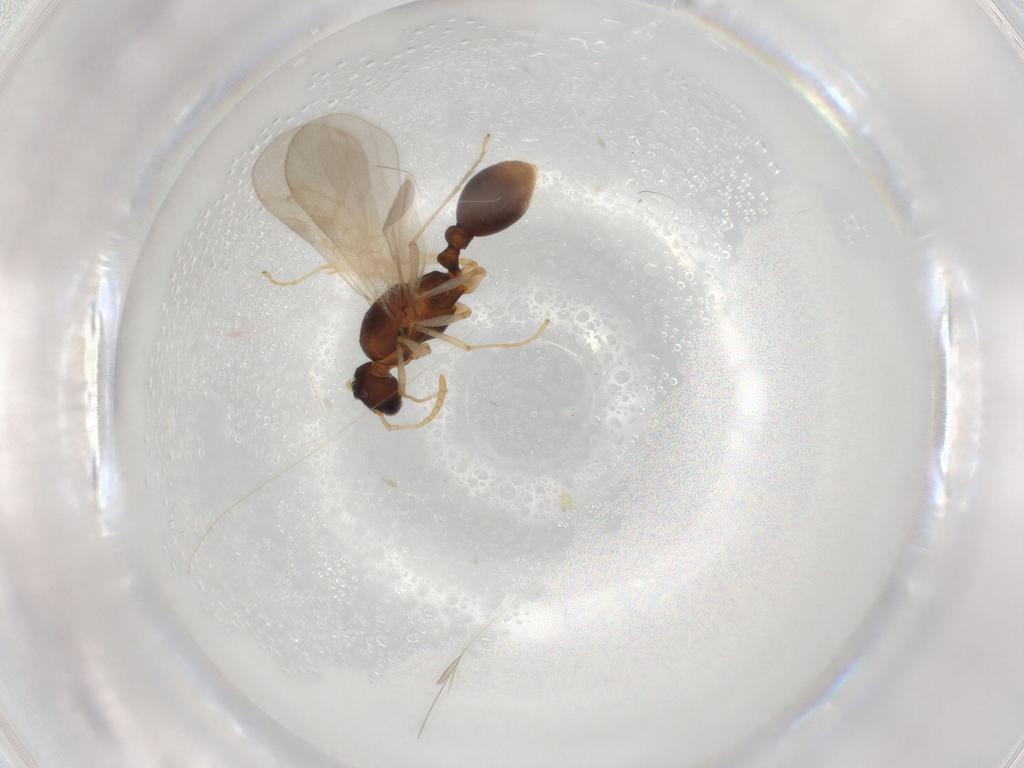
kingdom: Animalia
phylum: Arthropoda
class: Insecta
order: Hymenoptera
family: Formicidae
